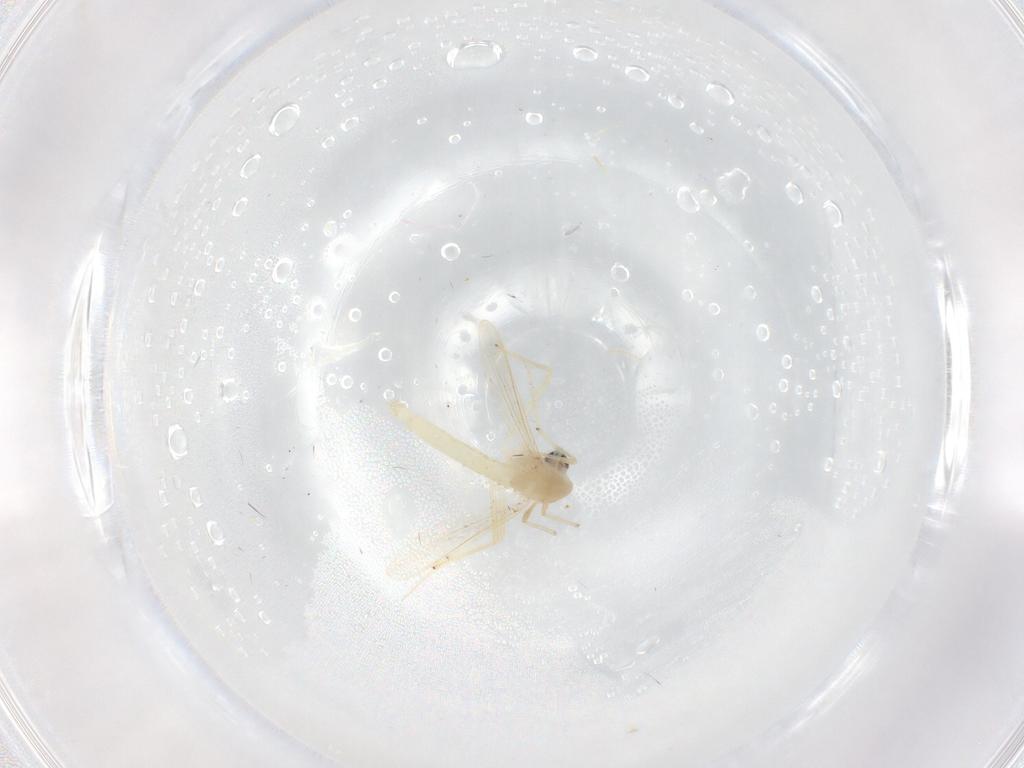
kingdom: Animalia
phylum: Arthropoda
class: Insecta
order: Diptera
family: Chironomidae
